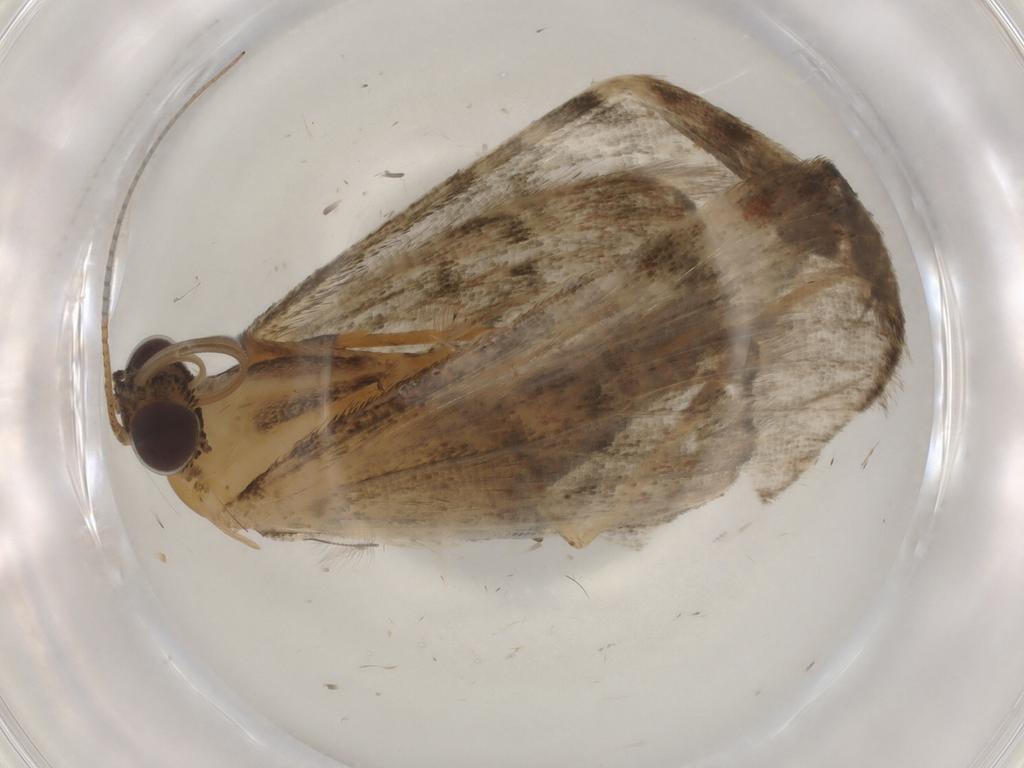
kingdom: Animalia
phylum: Arthropoda
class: Insecta
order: Lepidoptera
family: Geometridae
